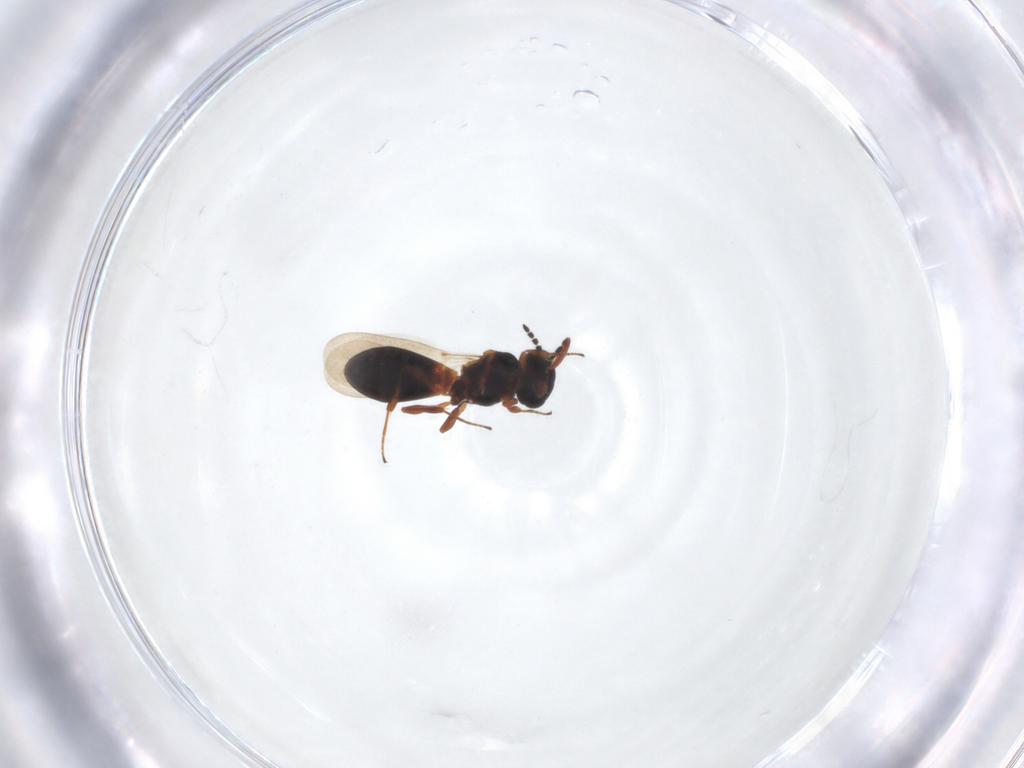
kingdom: Animalia
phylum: Arthropoda
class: Insecta
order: Hymenoptera
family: Platygastridae
